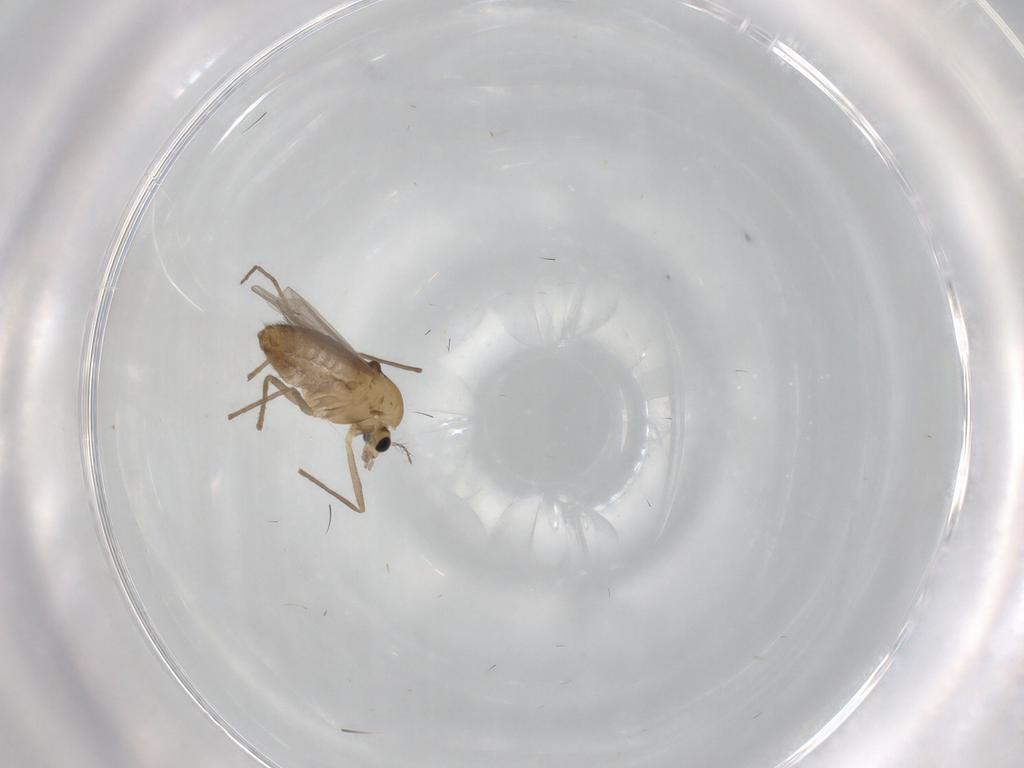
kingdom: Animalia
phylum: Arthropoda
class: Insecta
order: Diptera
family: Chironomidae
